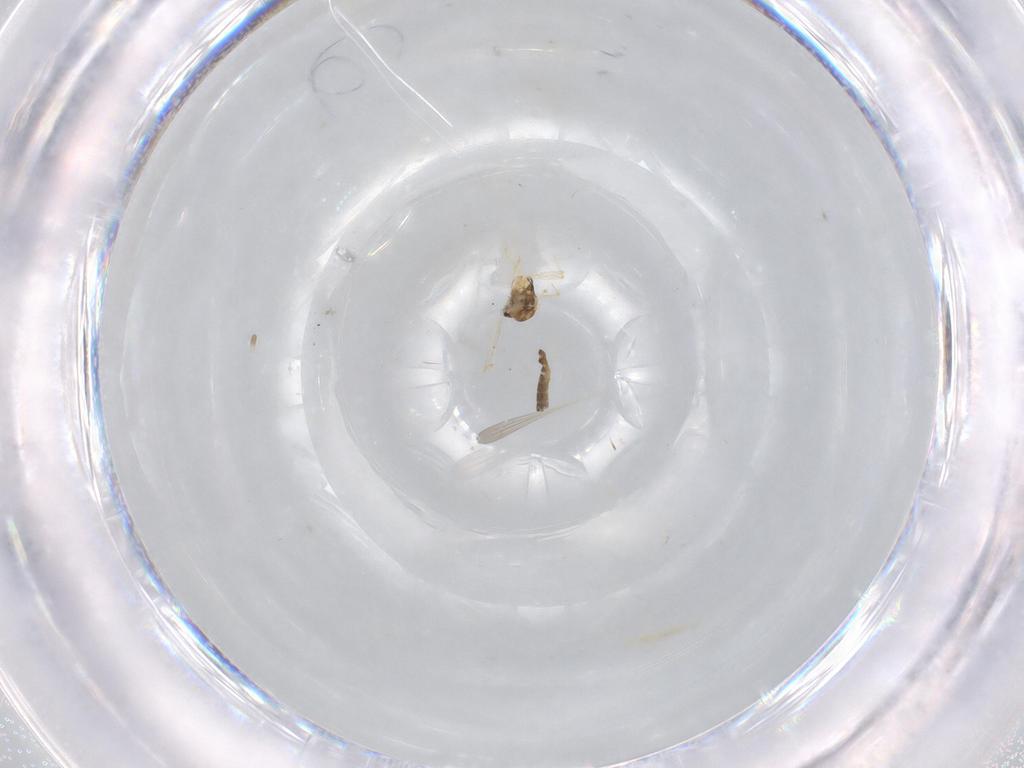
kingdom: Animalia
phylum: Arthropoda
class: Insecta
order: Diptera
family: Chironomidae
